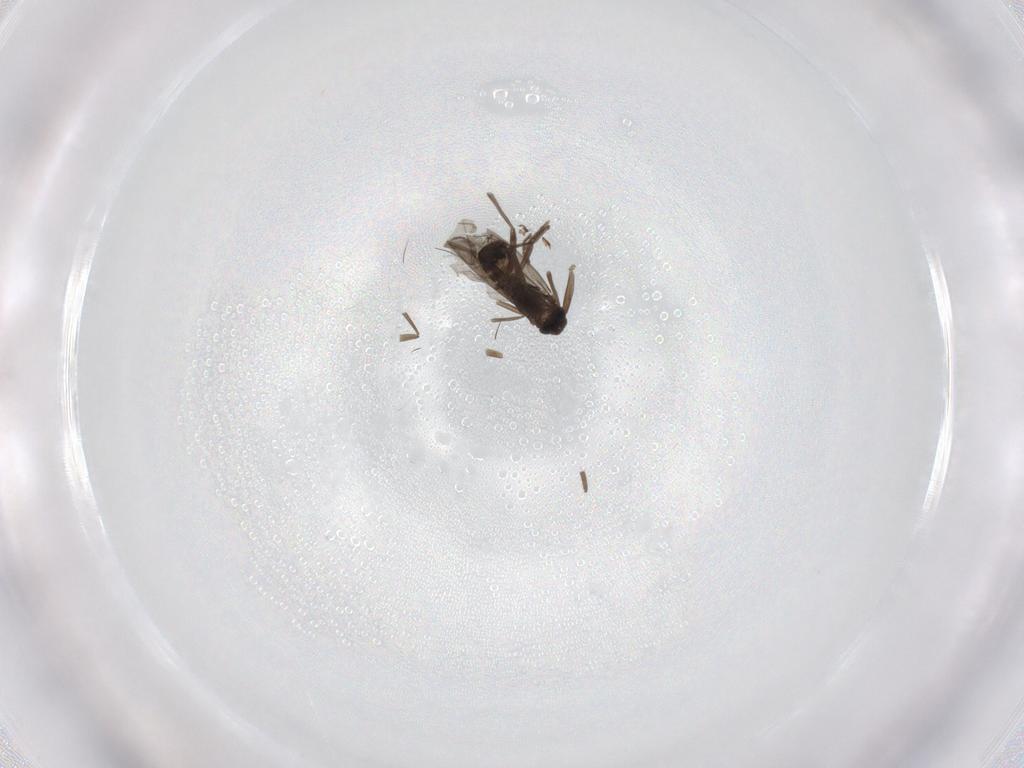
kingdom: Animalia
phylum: Arthropoda
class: Insecta
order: Diptera
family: Dolichopodidae
